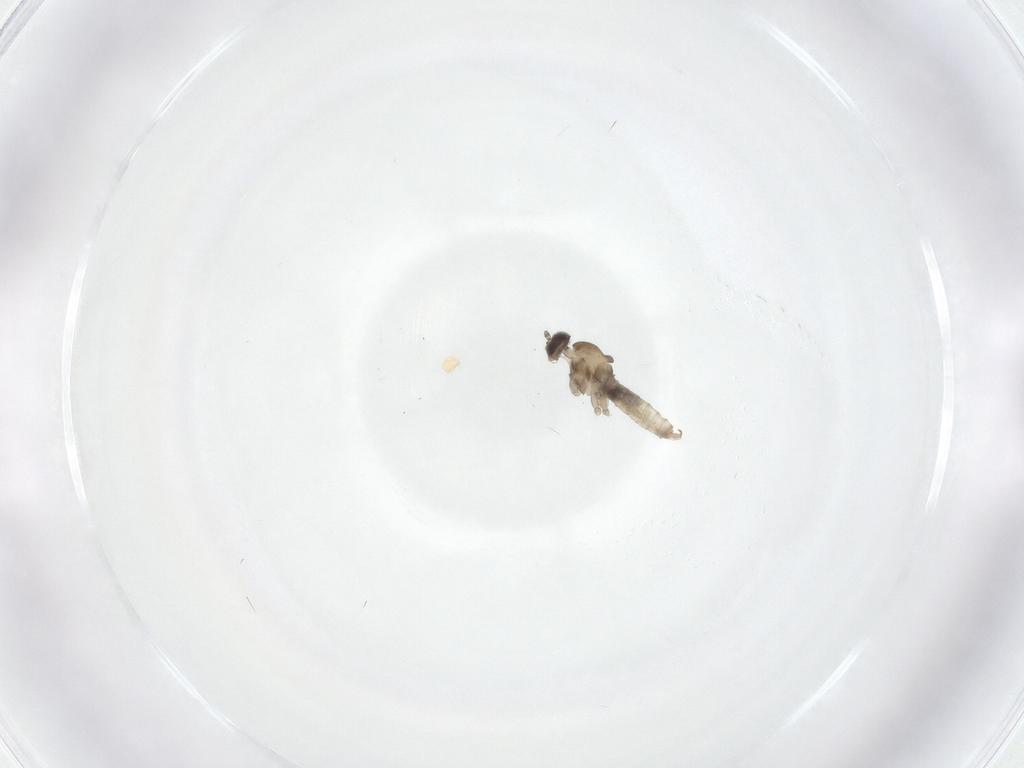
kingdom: Animalia
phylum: Arthropoda
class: Insecta
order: Diptera
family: Cecidomyiidae
